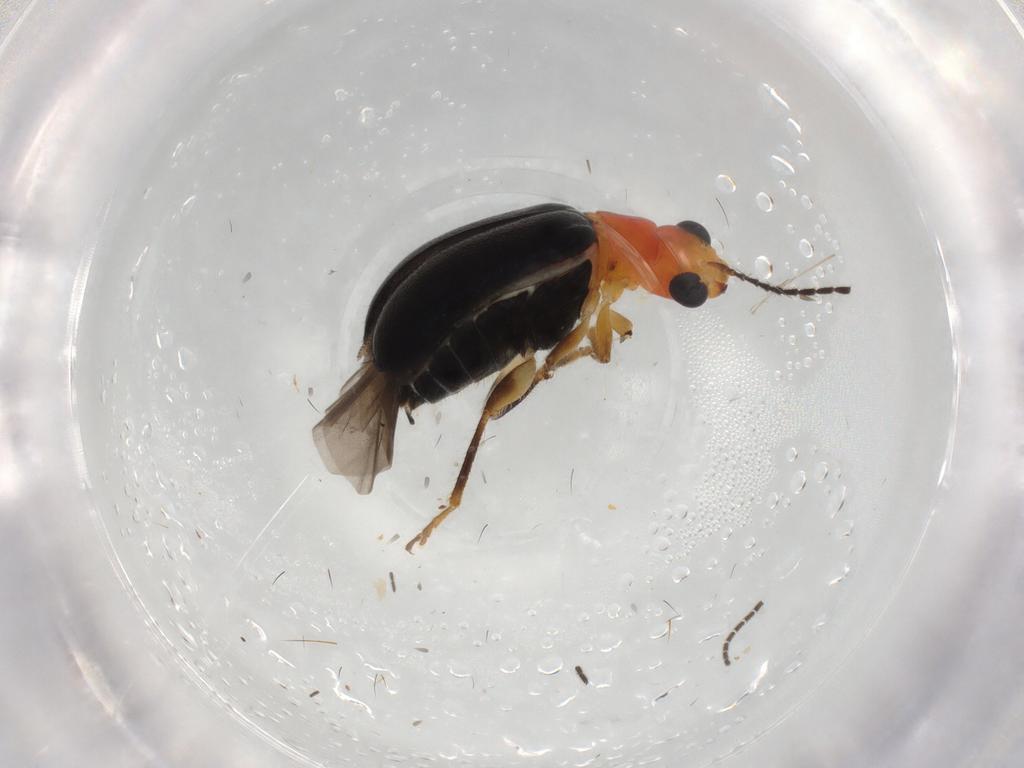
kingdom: Animalia
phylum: Arthropoda
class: Insecta
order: Coleoptera
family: Chrysomelidae
